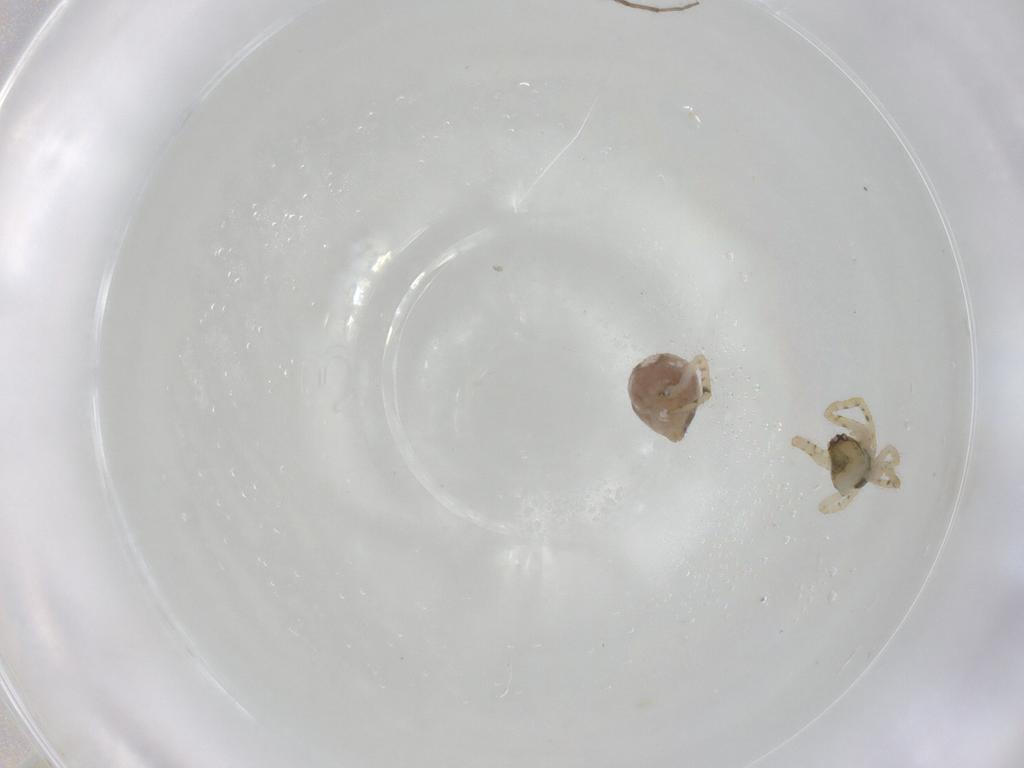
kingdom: Animalia
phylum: Arthropoda
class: Arachnida
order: Araneae
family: Theridiidae
